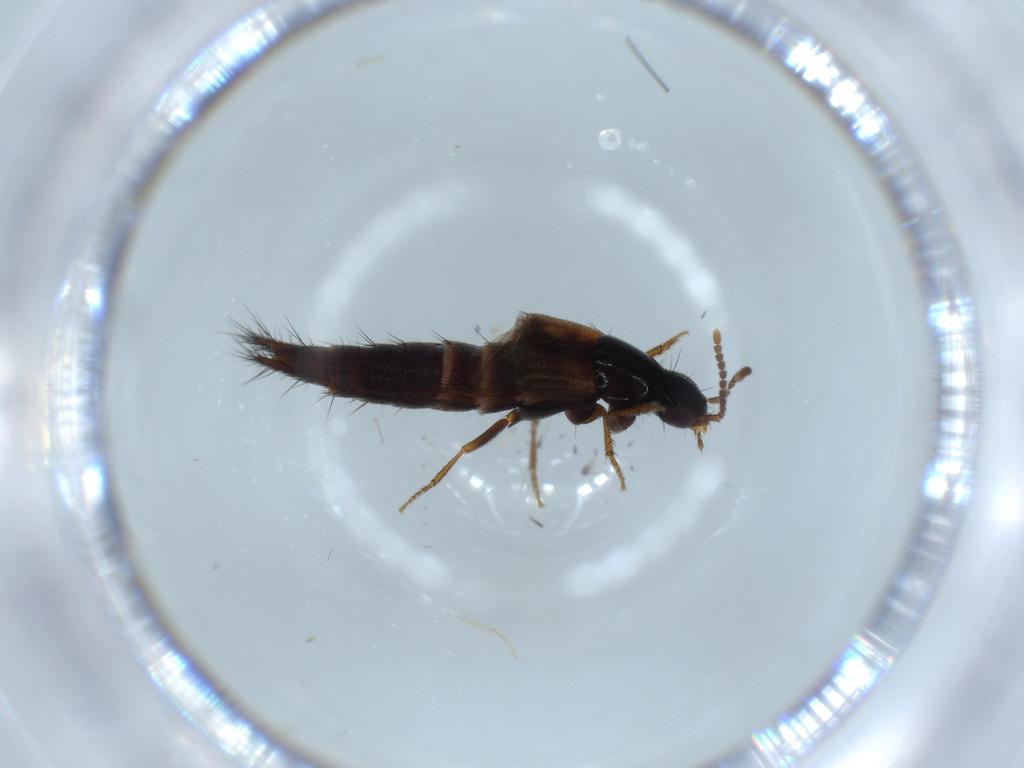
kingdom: Animalia
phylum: Arthropoda
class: Insecta
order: Coleoptera
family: Staphylinidae
